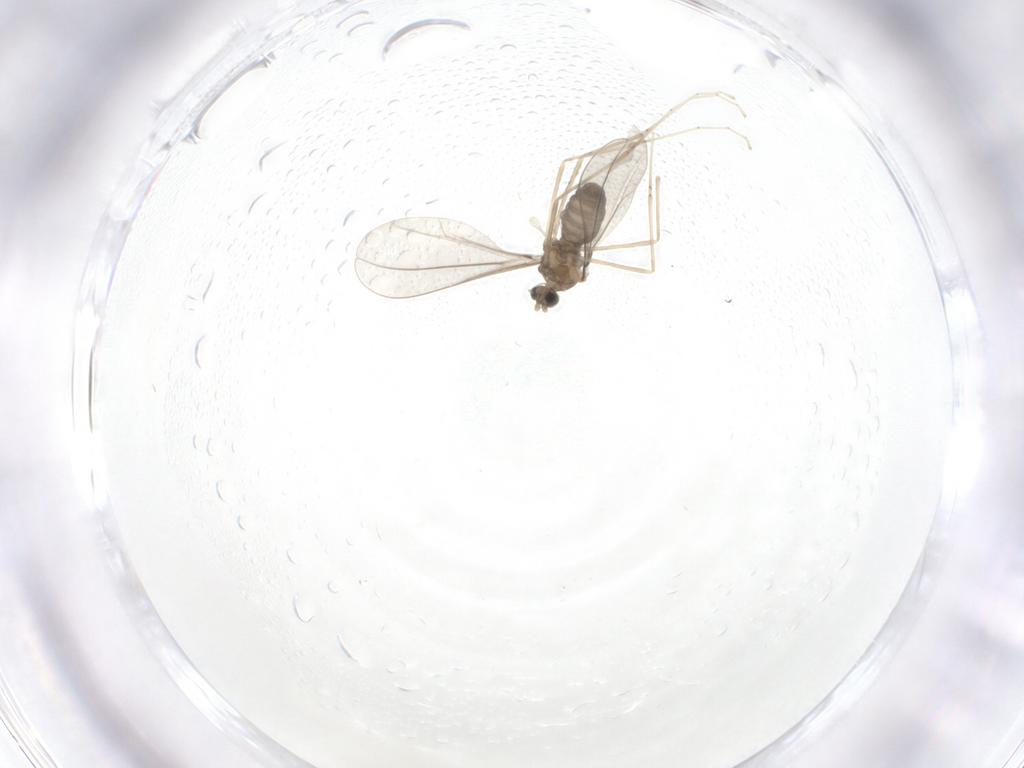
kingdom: Animalia
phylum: Arthropoda
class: Insecta
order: Diptera
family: Cecidomyiidae
